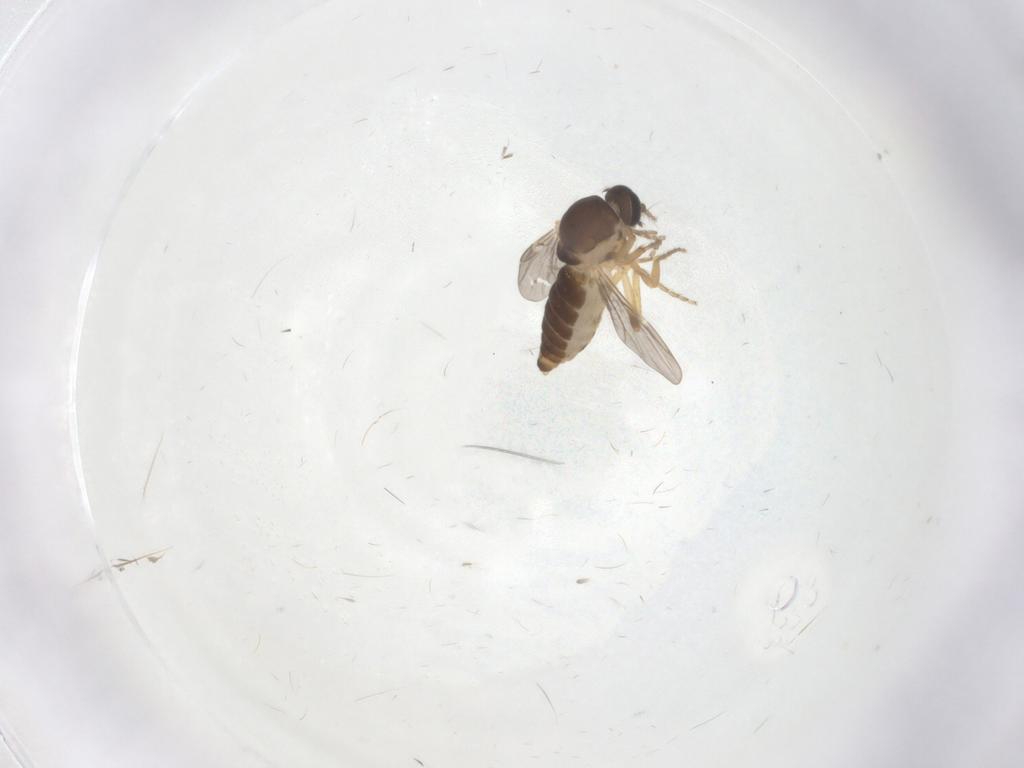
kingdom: Animalia
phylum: Arthropoda
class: Insecta
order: Diptera
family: Ceratopogonidae
